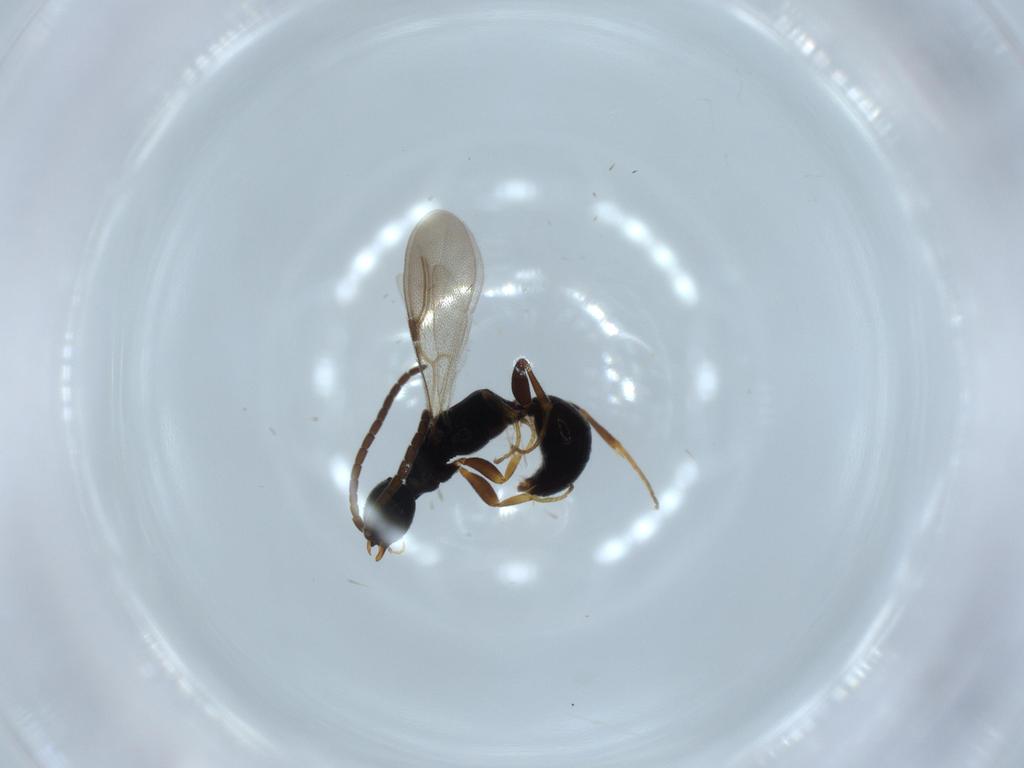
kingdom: Animalia
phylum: Arthropoda
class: Insecta
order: Hymenoptera
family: Bethylidae
